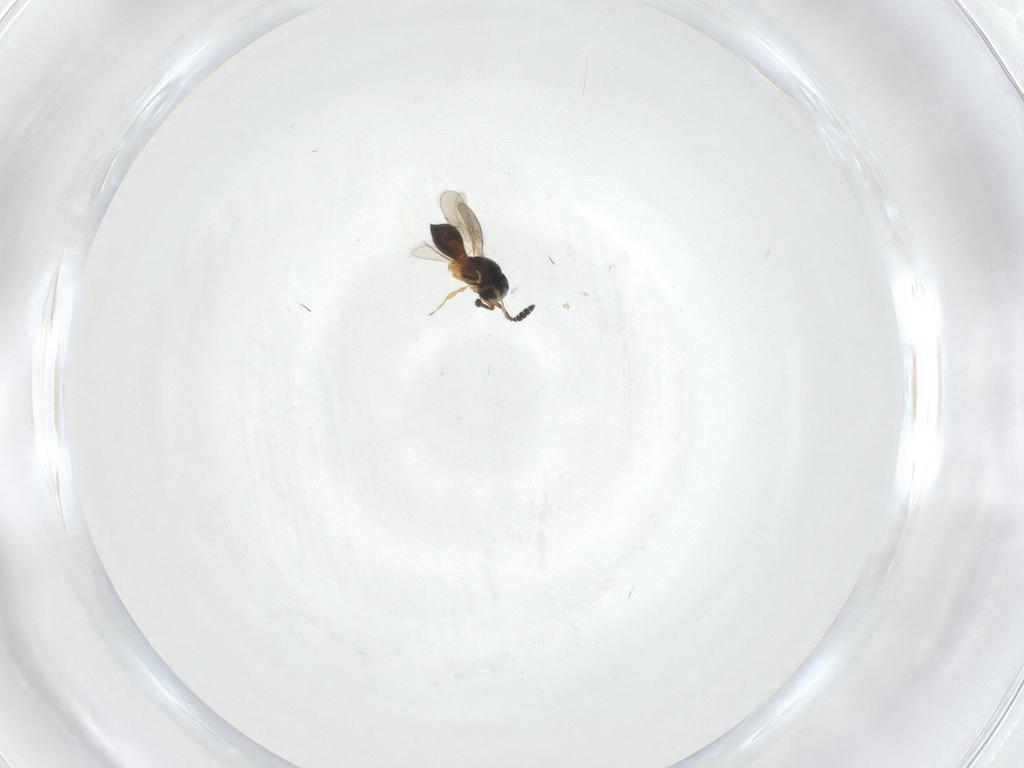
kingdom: Animalia
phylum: Arthropoda
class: Insecta
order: Hymenoptera
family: Scelionidae
